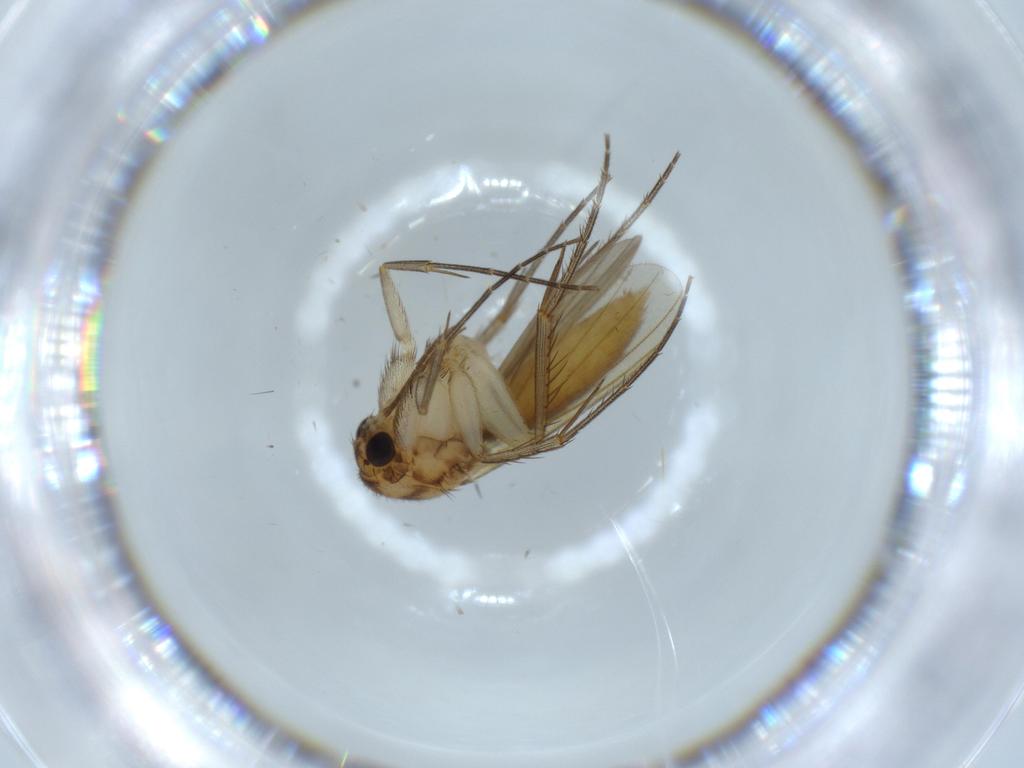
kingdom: Animalia
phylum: Arthropoda
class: Insecta
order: Diptera
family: Mycetophilidae
